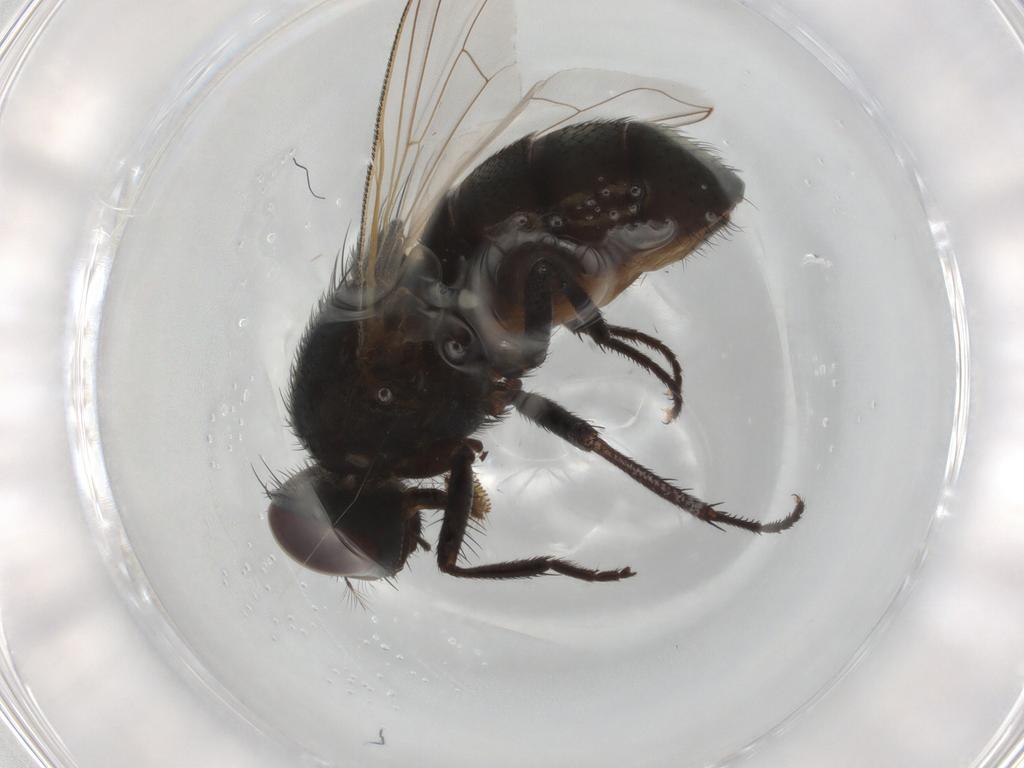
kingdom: Animalia
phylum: Arthropoda
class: Insecta
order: Diptera
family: Muscidae
